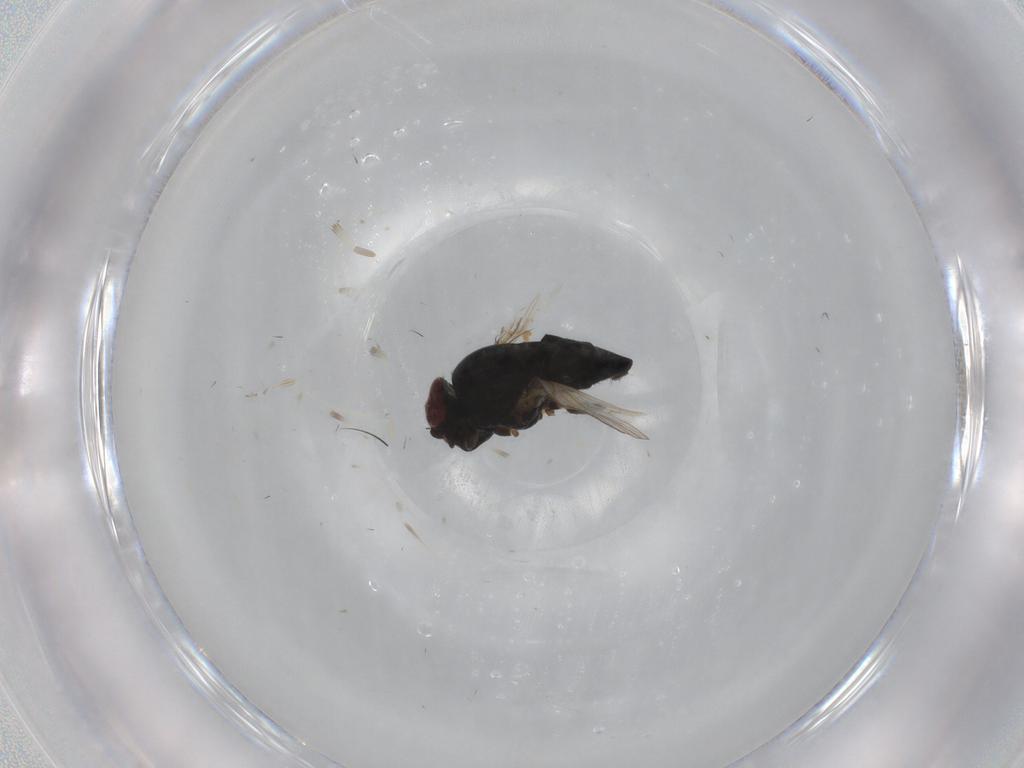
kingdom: Animalia
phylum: Arthropoda
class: Insecta
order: Diptera
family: Milichiidae
